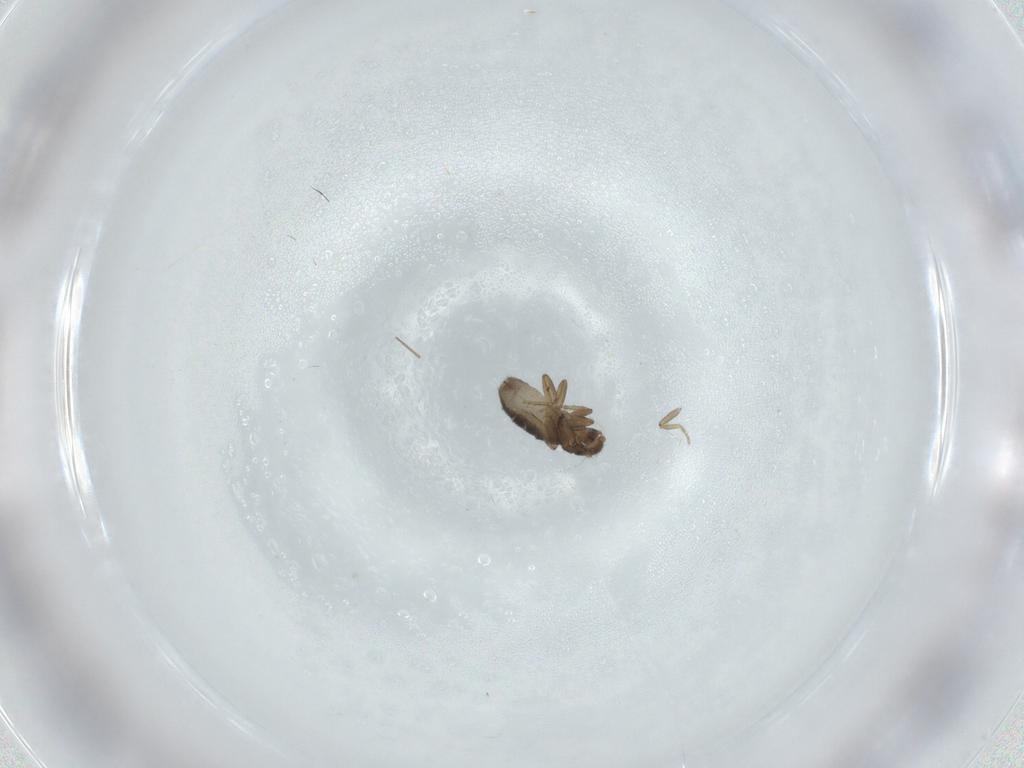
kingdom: Animalia
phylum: Arthropoda
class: Insecta
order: Diptera
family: Chironomidae
